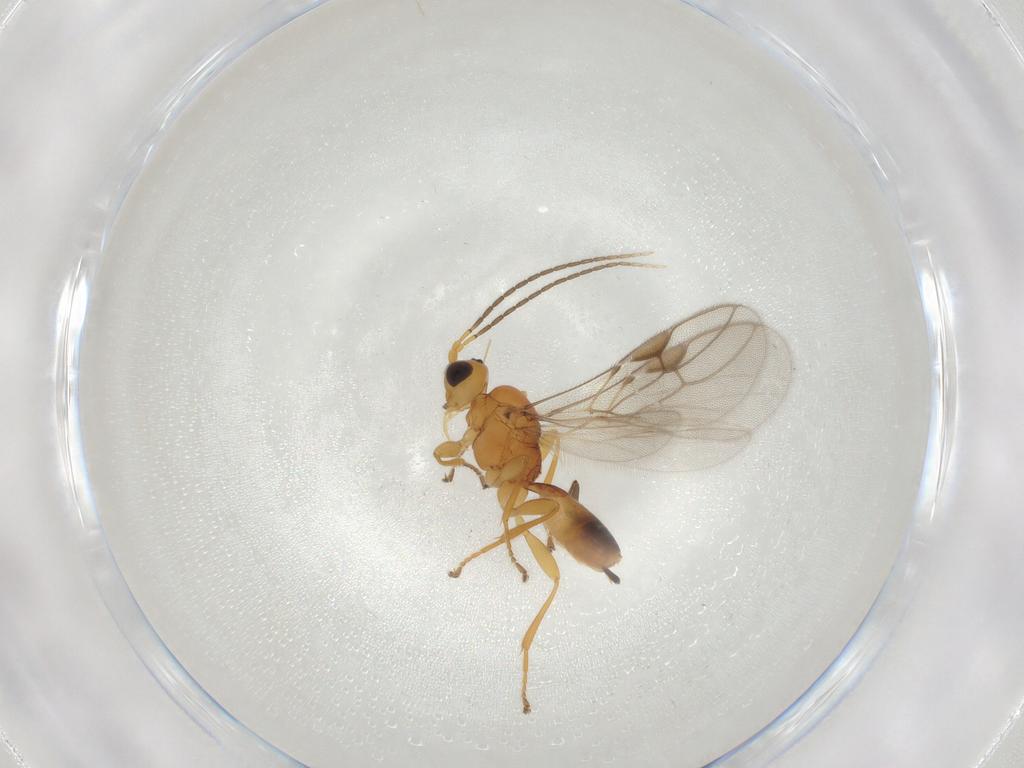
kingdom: Animalia
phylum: Arthropoda
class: Insecta
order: Hymenoptera
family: Braconidae
